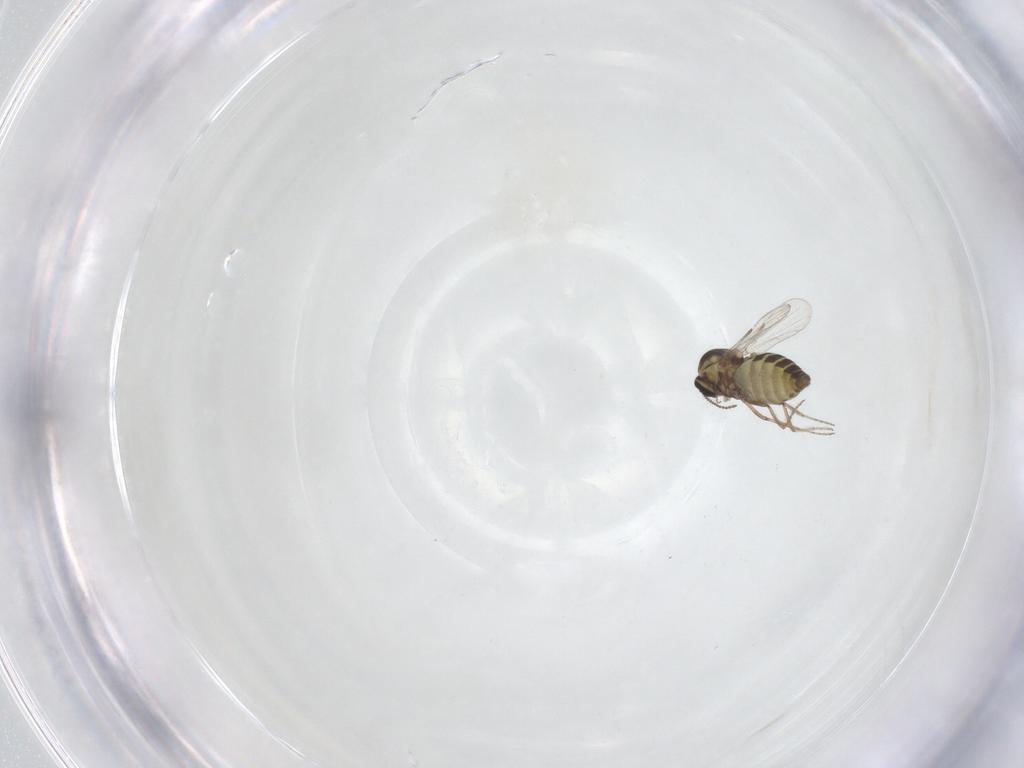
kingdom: Animalia
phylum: Arthropoda
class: Insecta
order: Diptera
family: Ceratopogonidae
